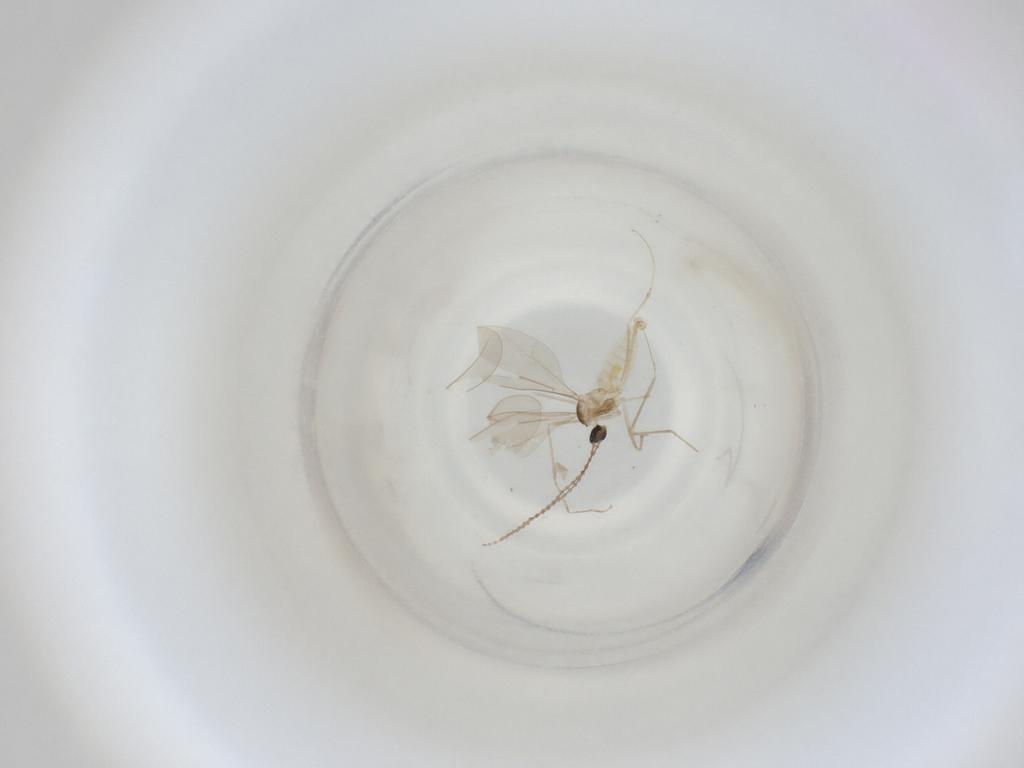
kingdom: Animalia
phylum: Arthropoda
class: Insecta
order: Diptera
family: Cecidomyiidae
